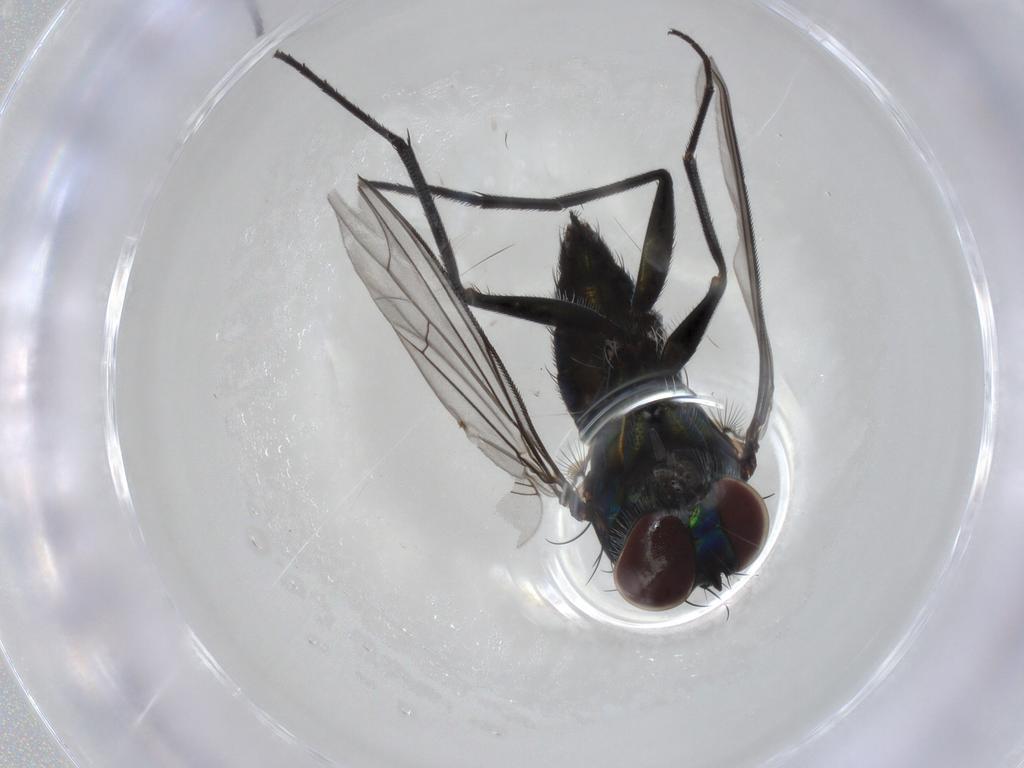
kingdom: Animalia
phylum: Arthropoda
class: Insecta
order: Diptera
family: Dolichopodidae
